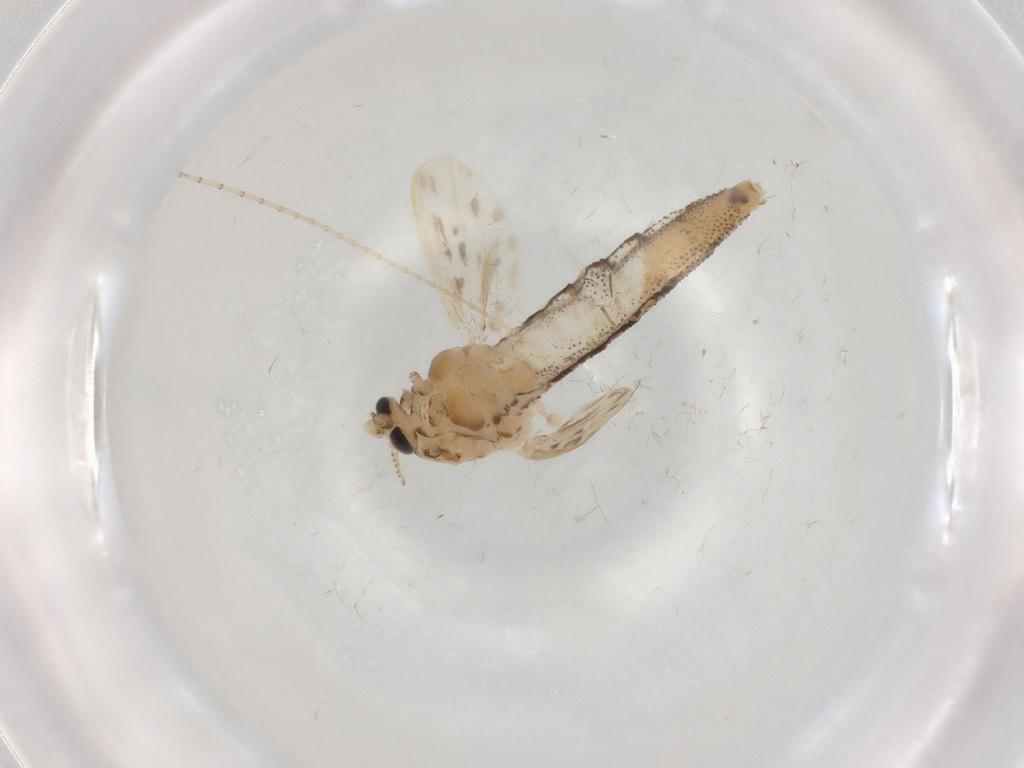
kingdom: Animalia
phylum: Arthropoda
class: Insecta
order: Diptera
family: Chaoboridae
